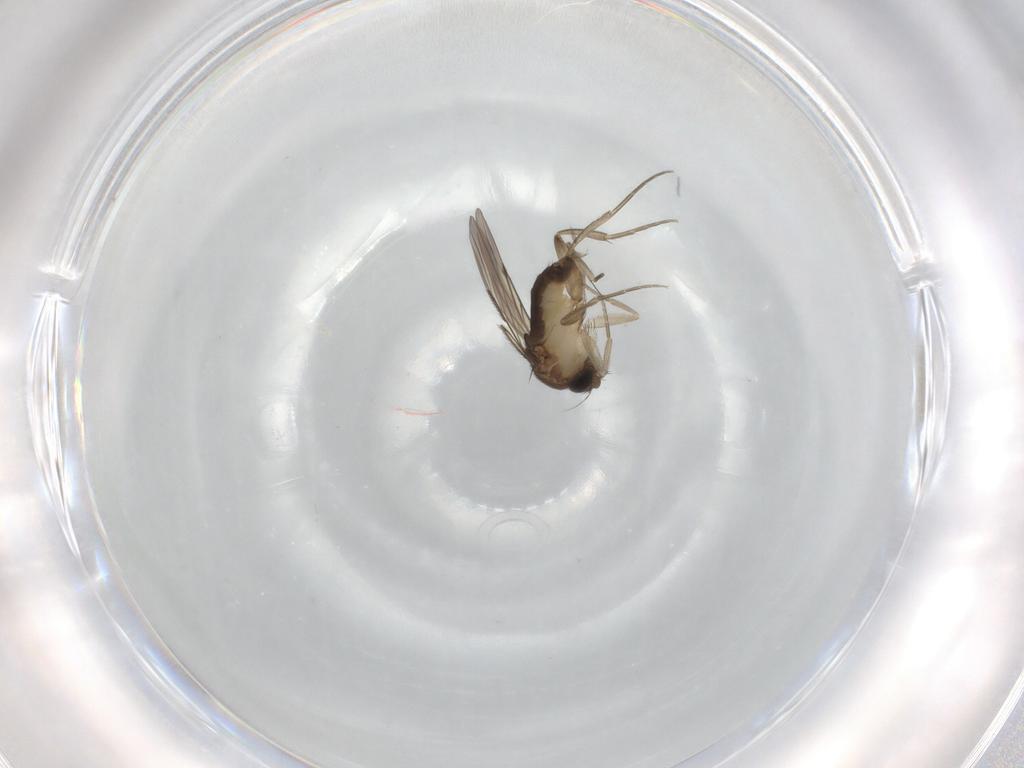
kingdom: Animalia
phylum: Arthropoda
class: Insecta
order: Diptera
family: Phoridae
